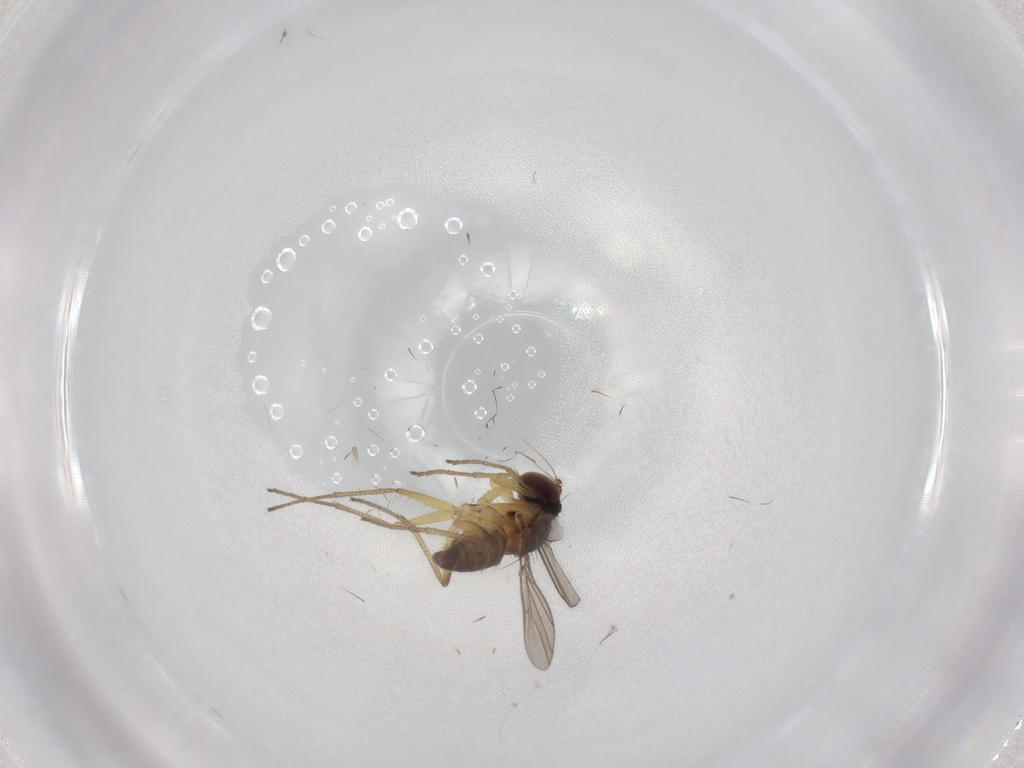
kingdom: Animalia
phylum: Arthropoda
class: Insecta
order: Diptera
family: Dolichopodidae
